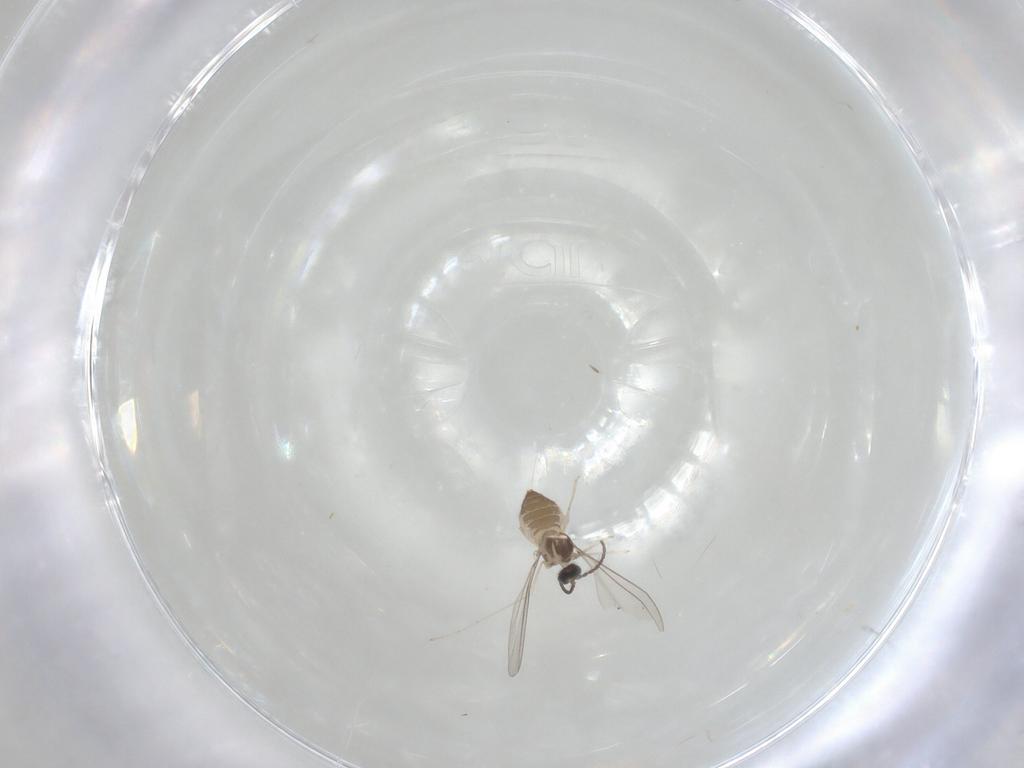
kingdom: Animalia
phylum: Arthropoda
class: Insecta
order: Diptera
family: Cecidomyiidae
